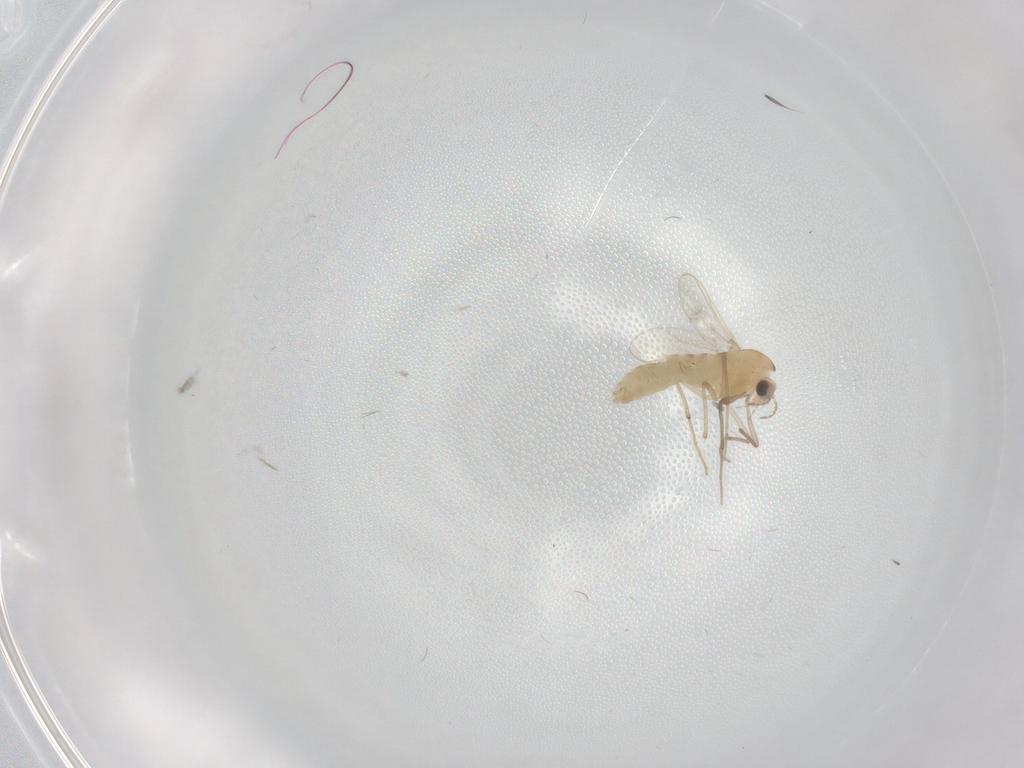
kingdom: Animalia
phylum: Arthropoda
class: Insecta
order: Diptera
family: Chironomidae
